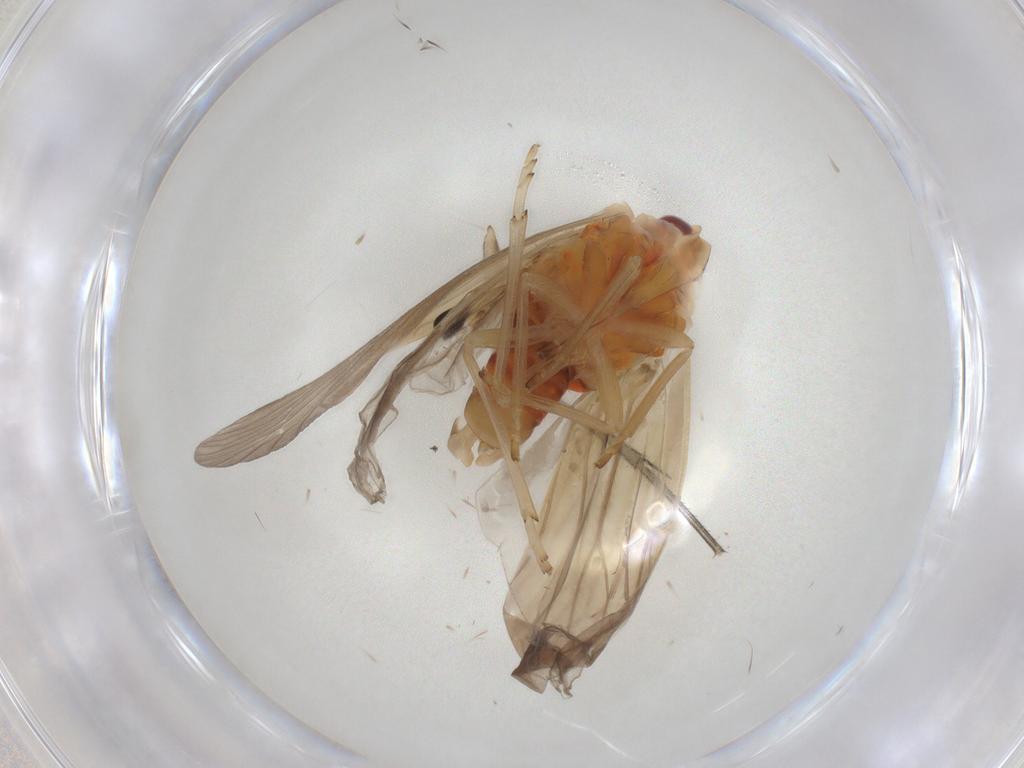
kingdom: Animalia
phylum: Arthropoda
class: Insecta
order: Hemiptera
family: Derbidae
